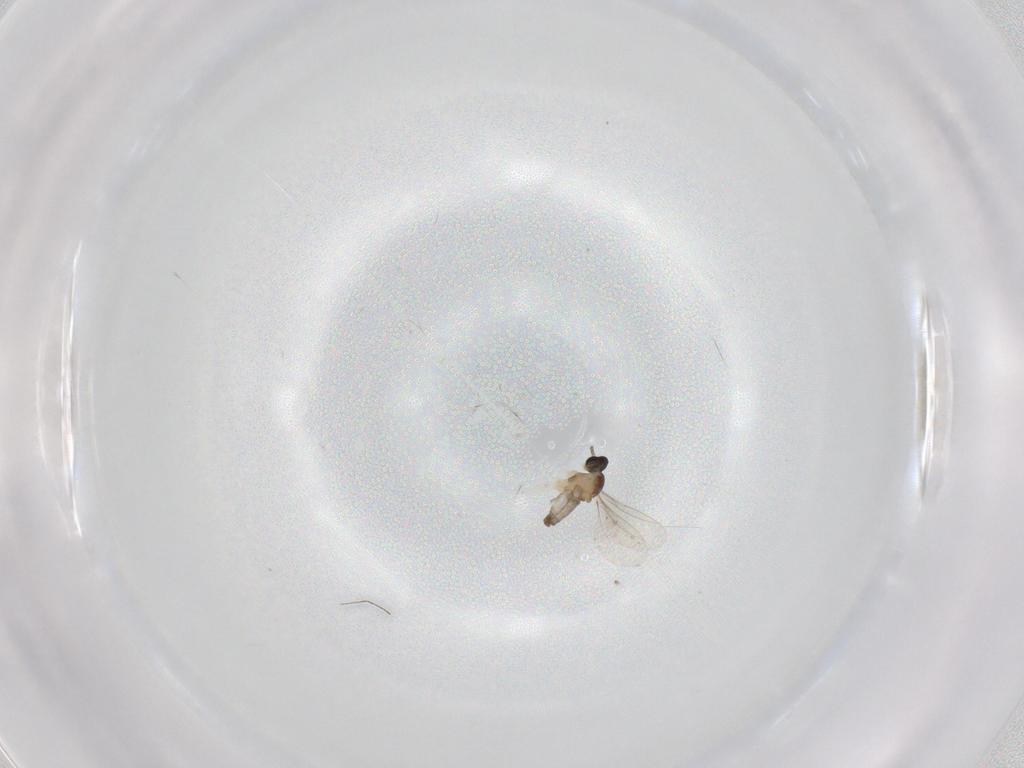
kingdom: Animalia
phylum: Arthropoda
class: Insecta
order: Diptera
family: Cecidomyiidae
